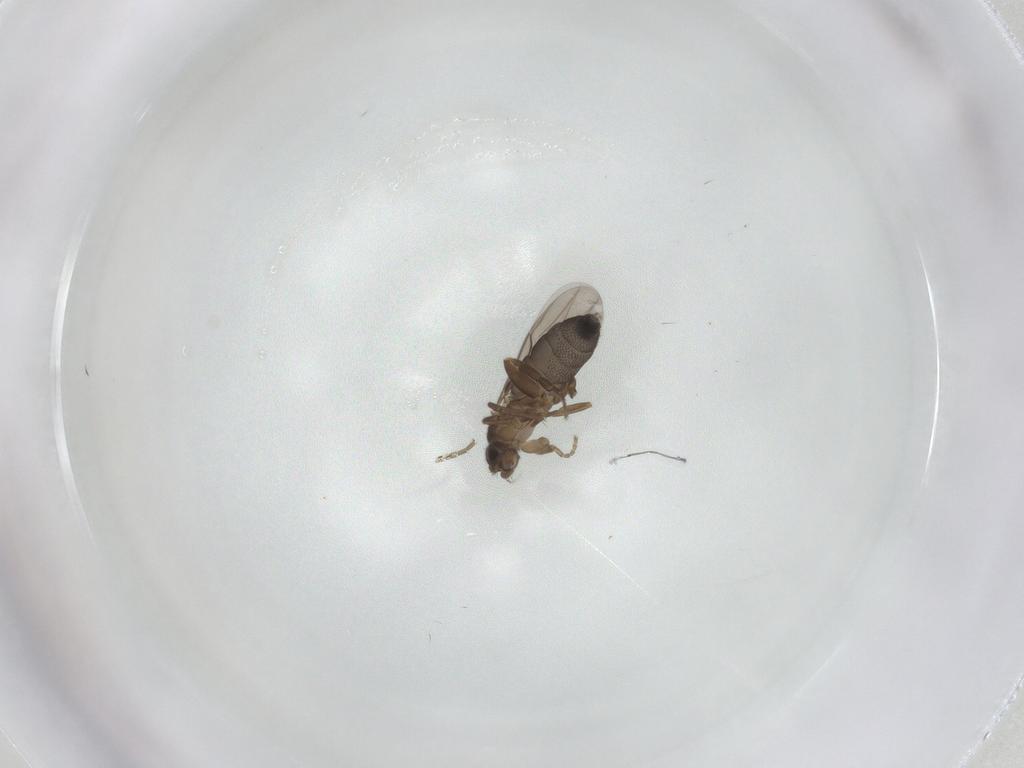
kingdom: Animalia
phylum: Arthropoda
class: Insecta
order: Diptera
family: Phoridae
